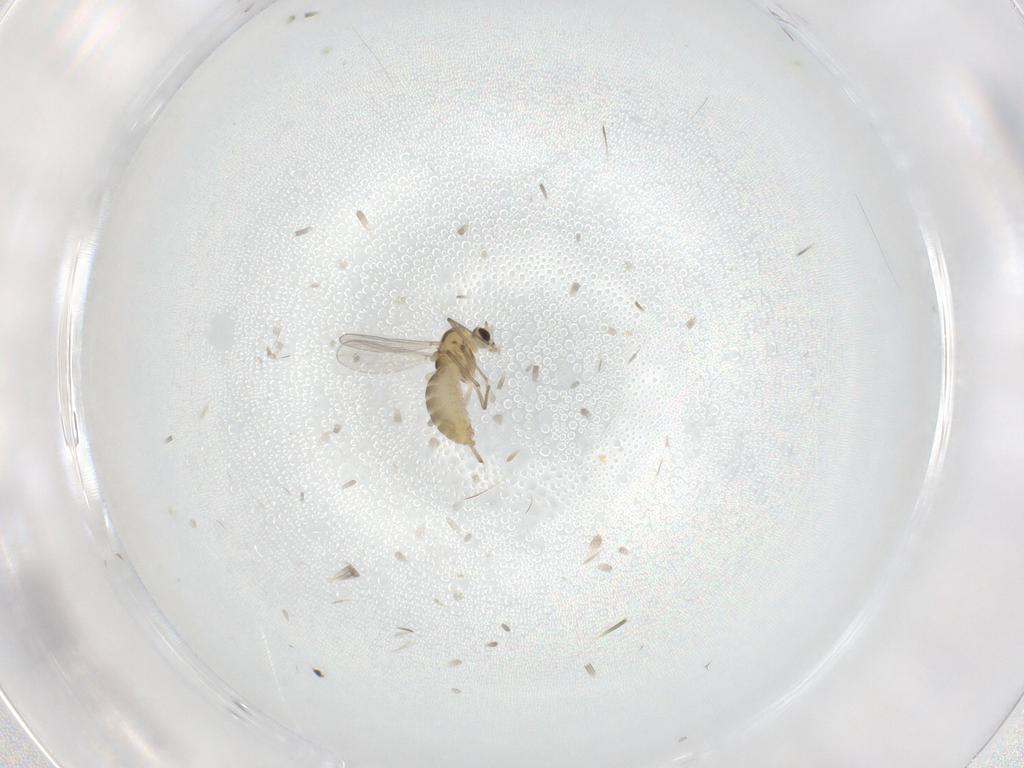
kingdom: Animalia
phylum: Arthropoda
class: Insecta
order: Diptera
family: Chironomidae
